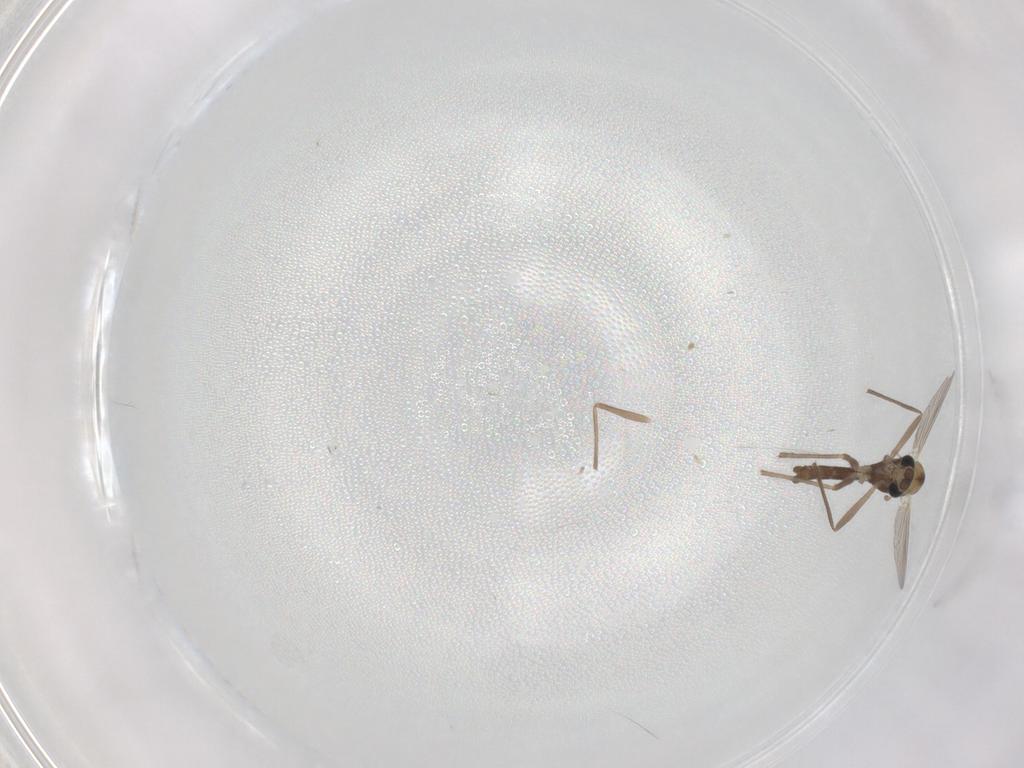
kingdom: Animalia
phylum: Arthropoda
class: Insecta
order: Diptera
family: Chironomidae
